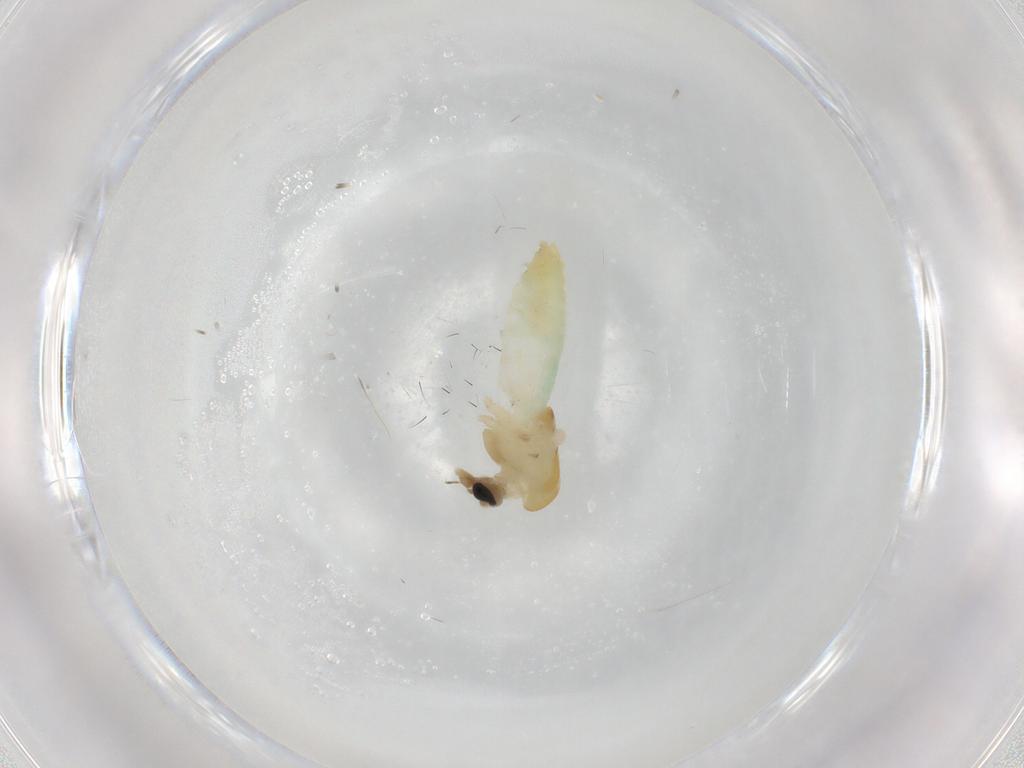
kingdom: Animalia
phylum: Arthropoda
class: Insecta
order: Diptera
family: Chironomidae
